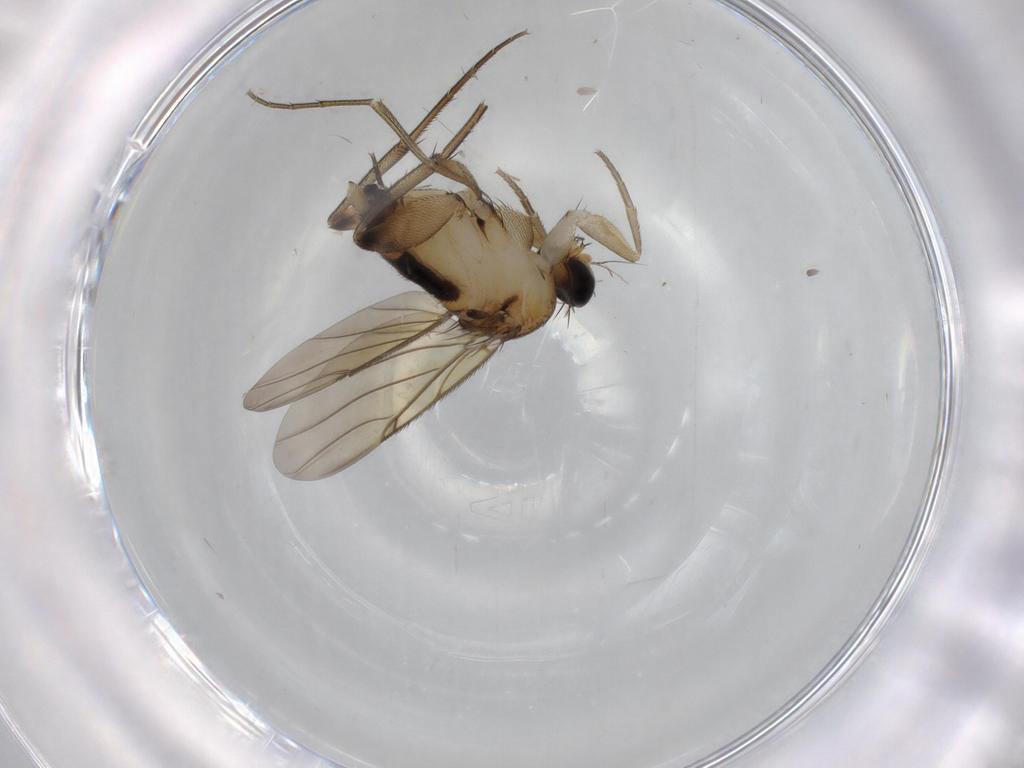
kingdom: Animalia
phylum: Arthropoda
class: Insecta
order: Diptera
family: Phoridae
